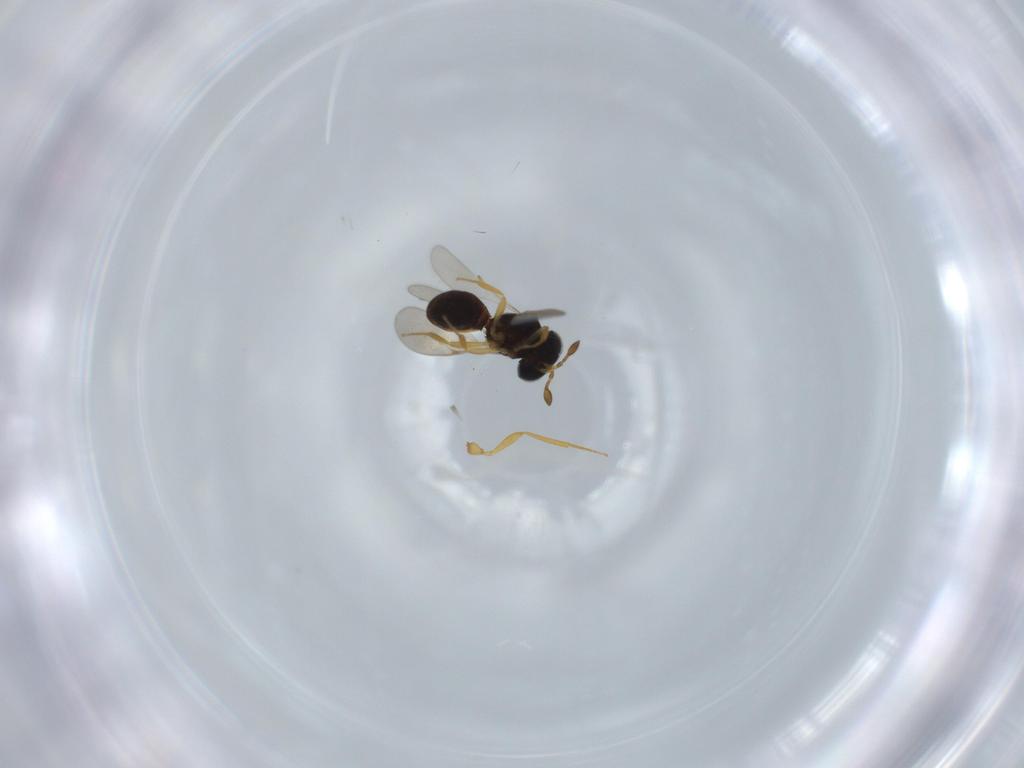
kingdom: Animalia
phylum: Arthropoda
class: Insecta
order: Hymenoptera
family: Scelionidae
